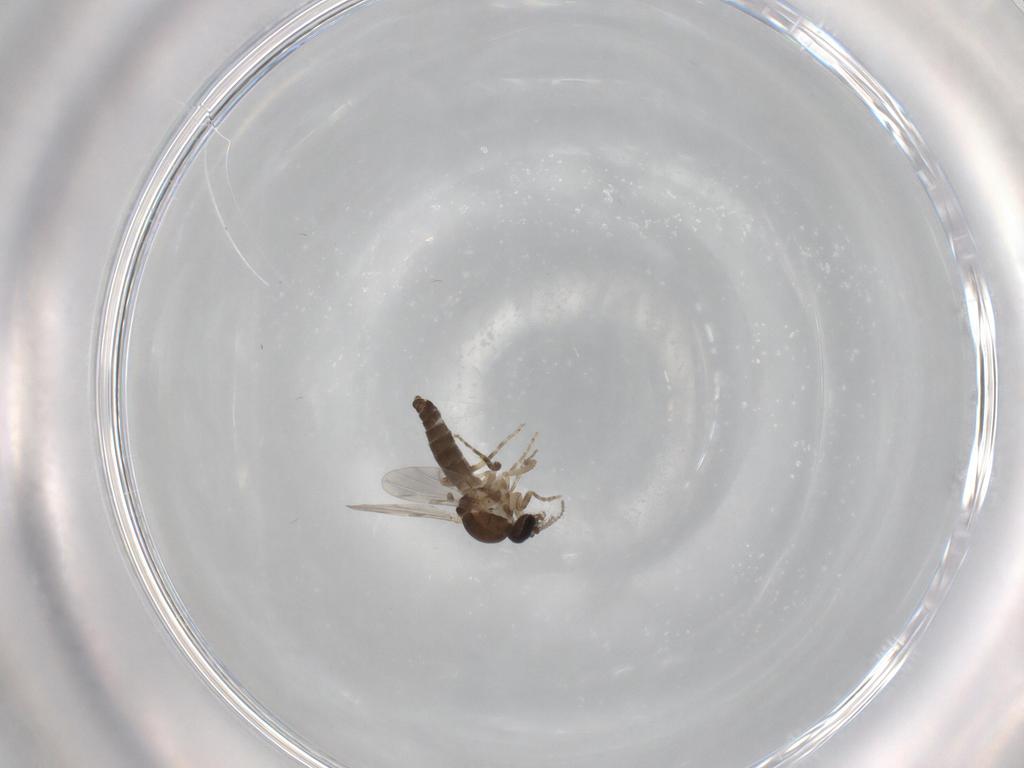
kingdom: Animalia
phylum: Arthropoda
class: Insecta
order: Diptera
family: Ceratopogonidae
